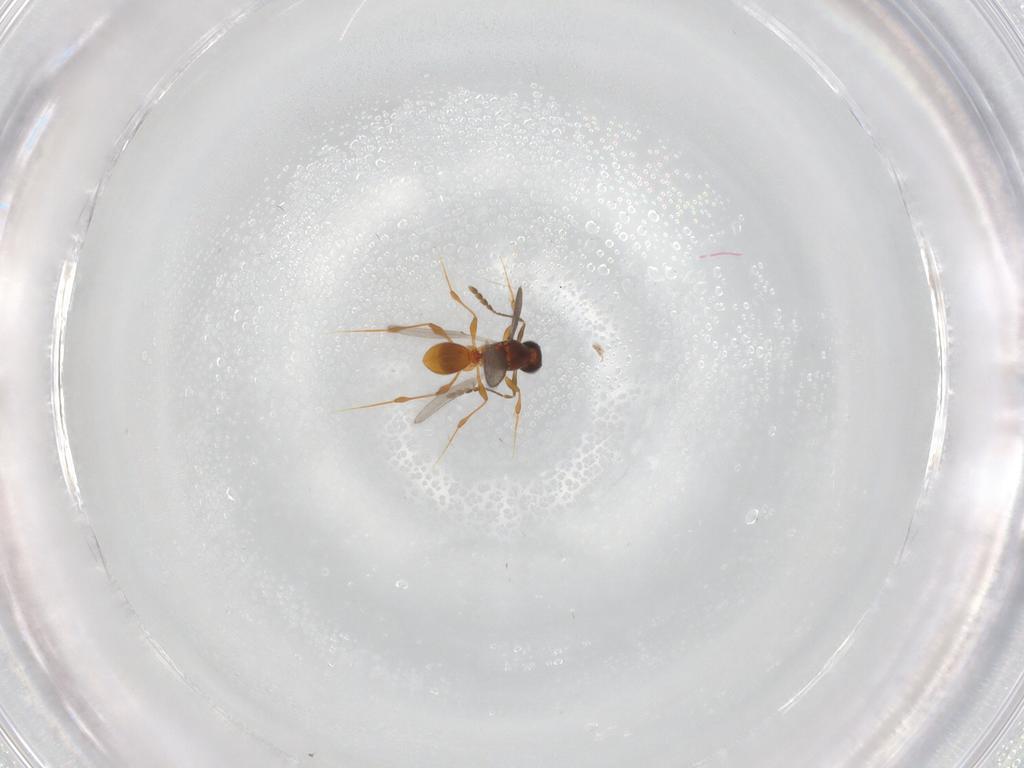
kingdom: Animalia
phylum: Arthropoda
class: Insecta
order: Hymenoptera
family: Platygastridae
